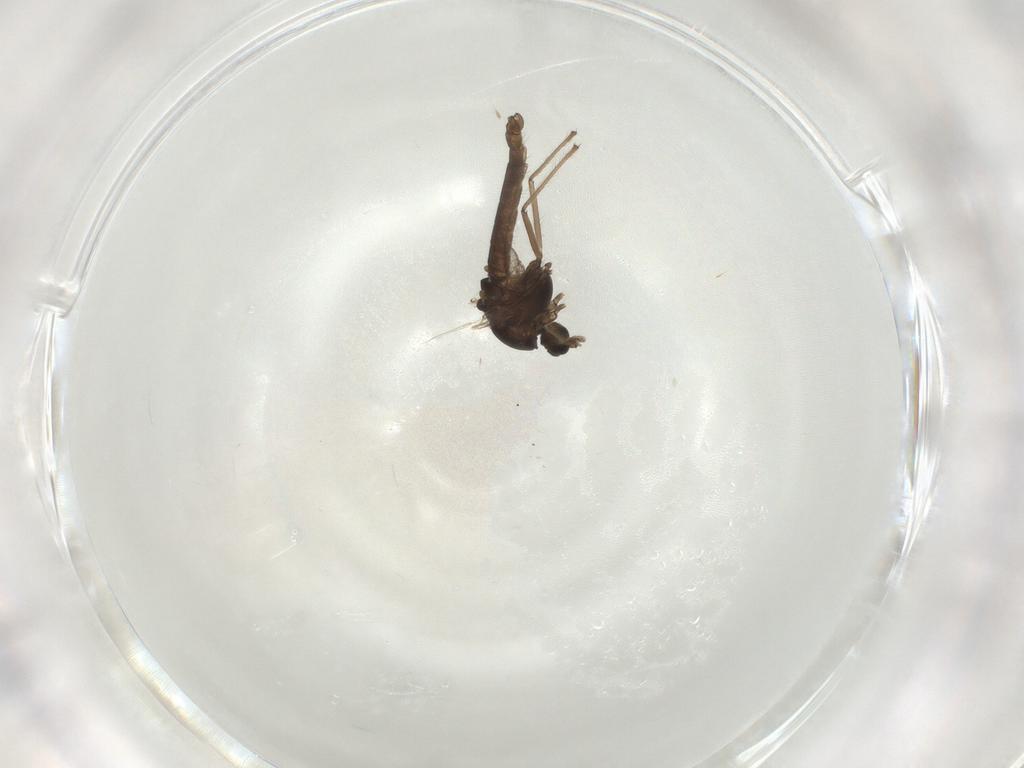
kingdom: Animalia
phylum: Arthropoda
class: Insecta
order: Diptera
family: Chironomidae
